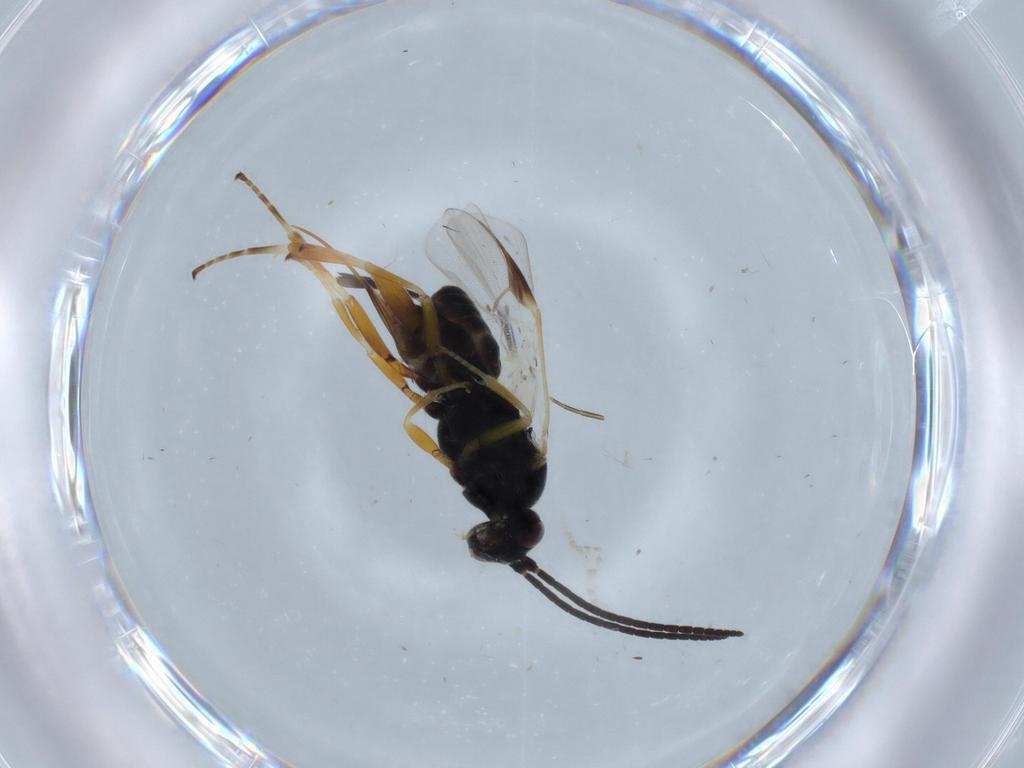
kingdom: Animalia
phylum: Arthropoda
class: Insecta
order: Hymenoptera
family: Braconidae
